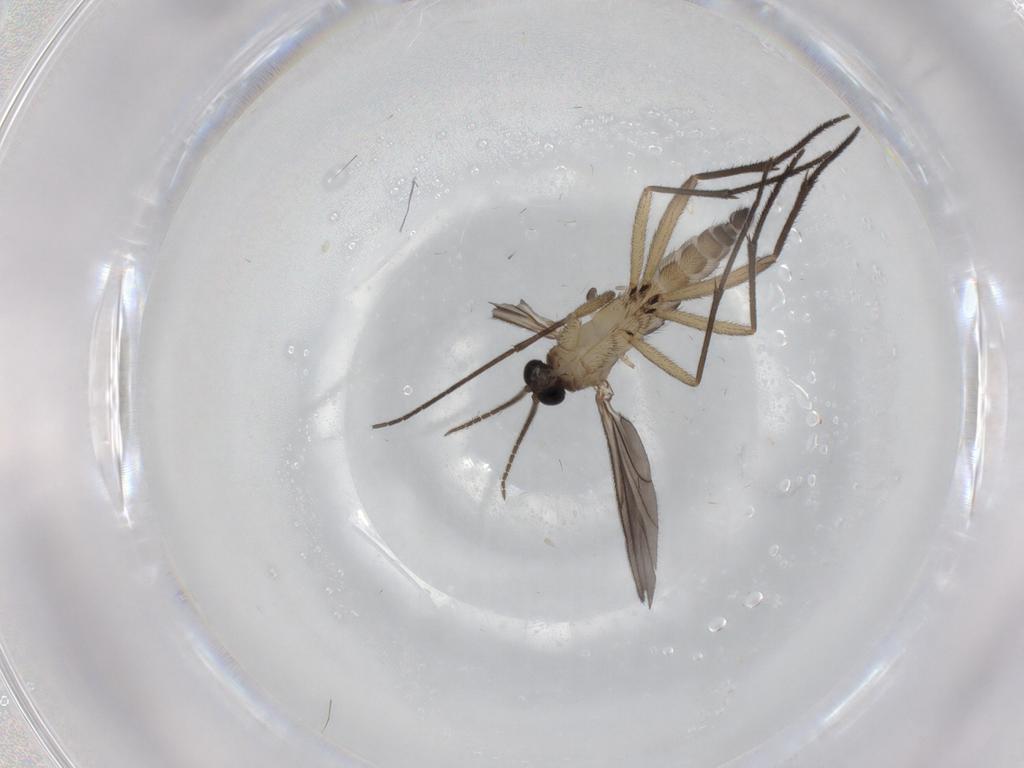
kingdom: Animalia
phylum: Arthropoda
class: Insecta
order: Diptera
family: Sciaridae
